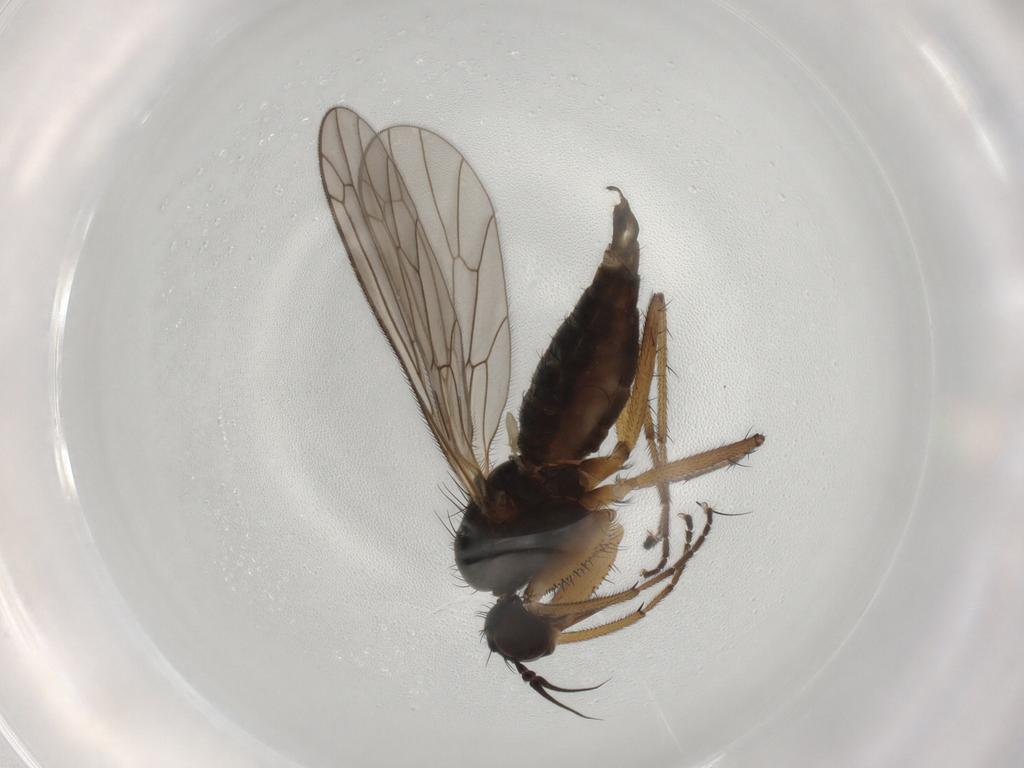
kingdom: Animalia
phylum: Arthropoda
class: Insecta
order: Diptera
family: Empididae
